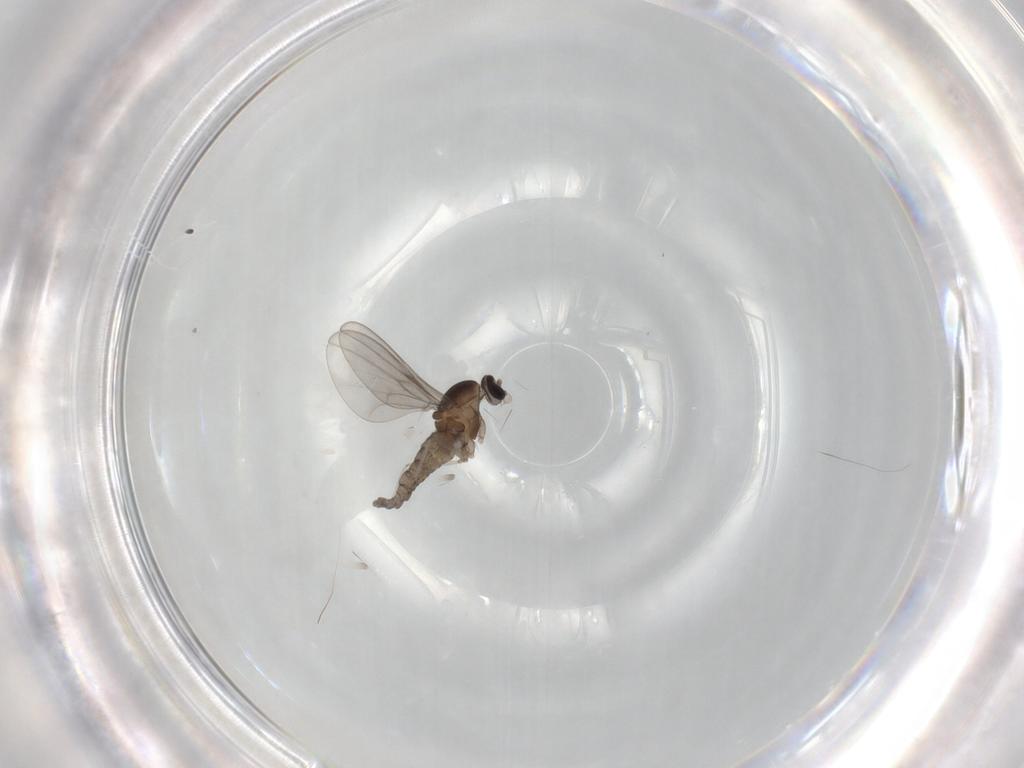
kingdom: Animalia
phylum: Arthropoda
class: Insecta
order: Diptera
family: Cecidomyiidae
